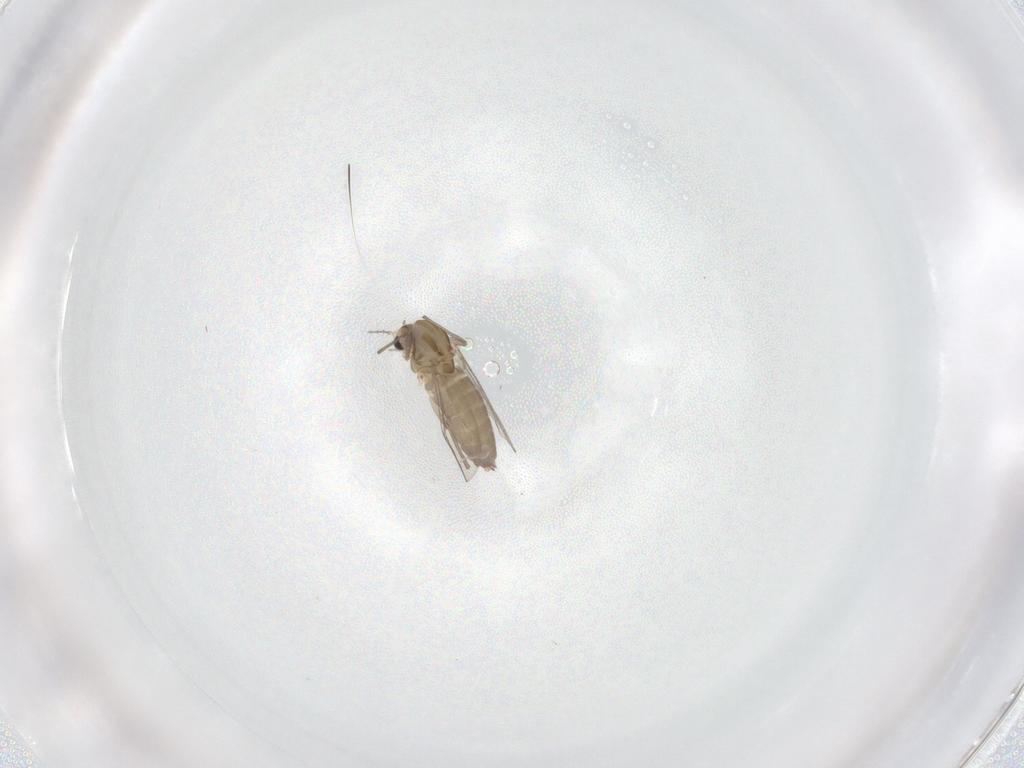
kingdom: Animalia
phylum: Arthropoda
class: Insecta
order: Diptera
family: Chironomidae
